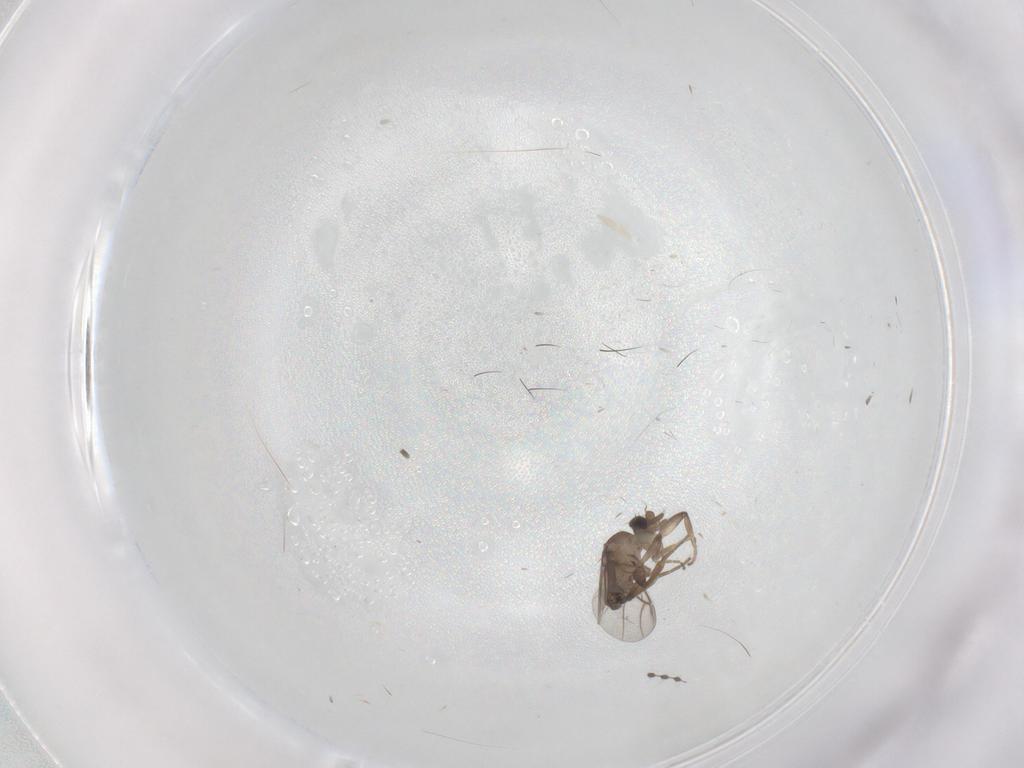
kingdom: Animalia
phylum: Arthropoda
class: Insecta
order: Diptera
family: Phoridae
